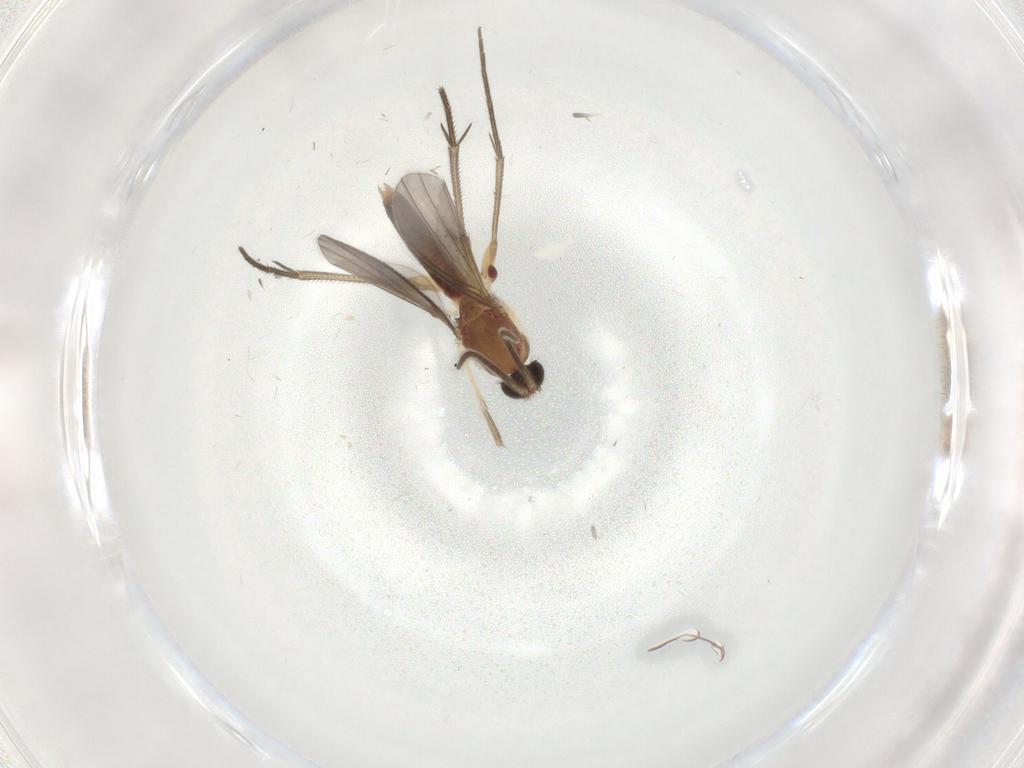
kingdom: Animalia
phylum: Arthropoda
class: Insecta
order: Diptera
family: Mycetophilidae
